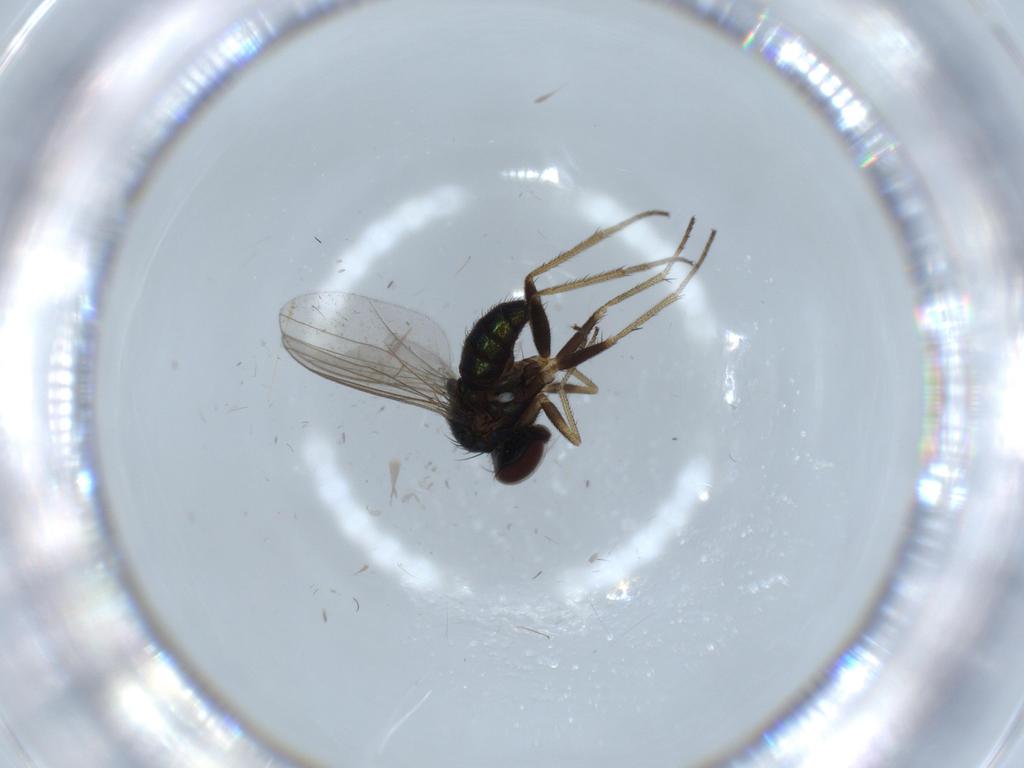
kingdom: Animalia
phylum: Arthropoda
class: Insecta
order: Diptera
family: Dolichopodidae
